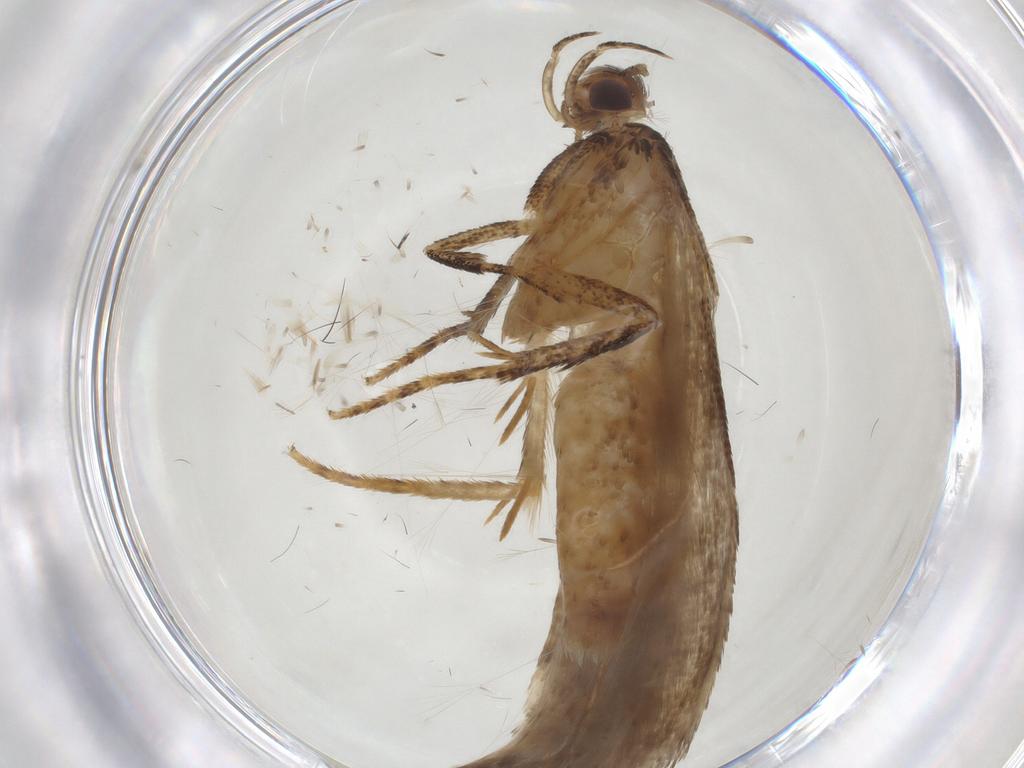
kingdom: Animalia
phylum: Arthropoda
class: Insecta
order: Lepidoptera
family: Gelechiidae
